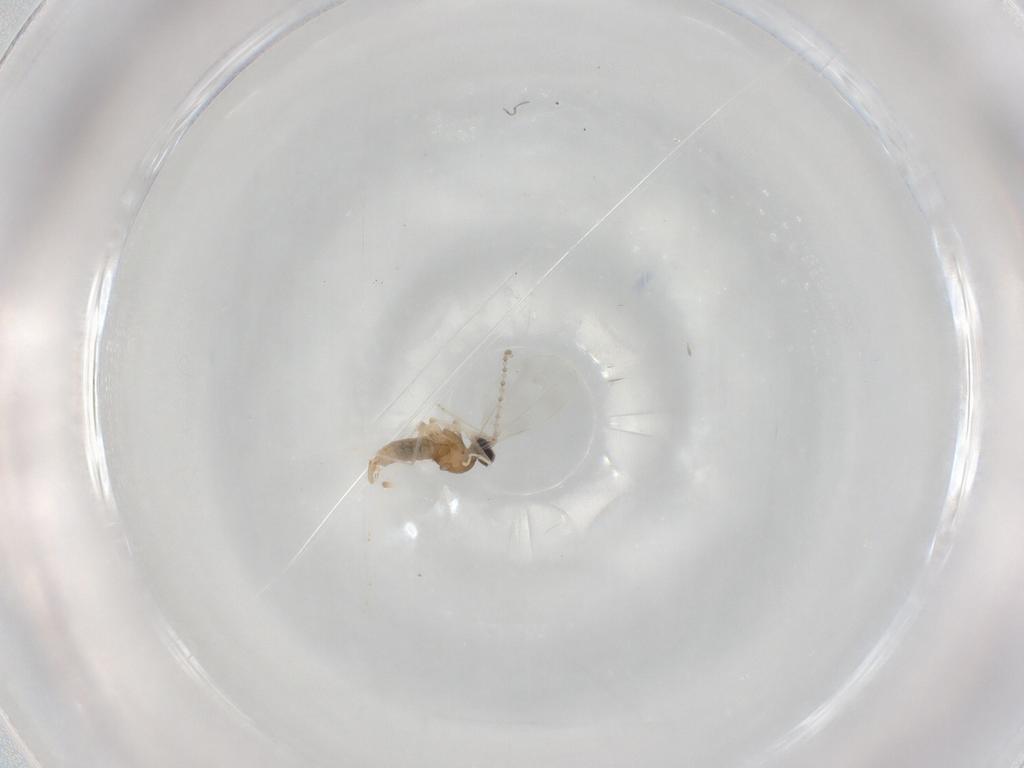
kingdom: Animalia
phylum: Arthropoda
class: Insecta
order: Diptera
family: Cecidomyiidae
